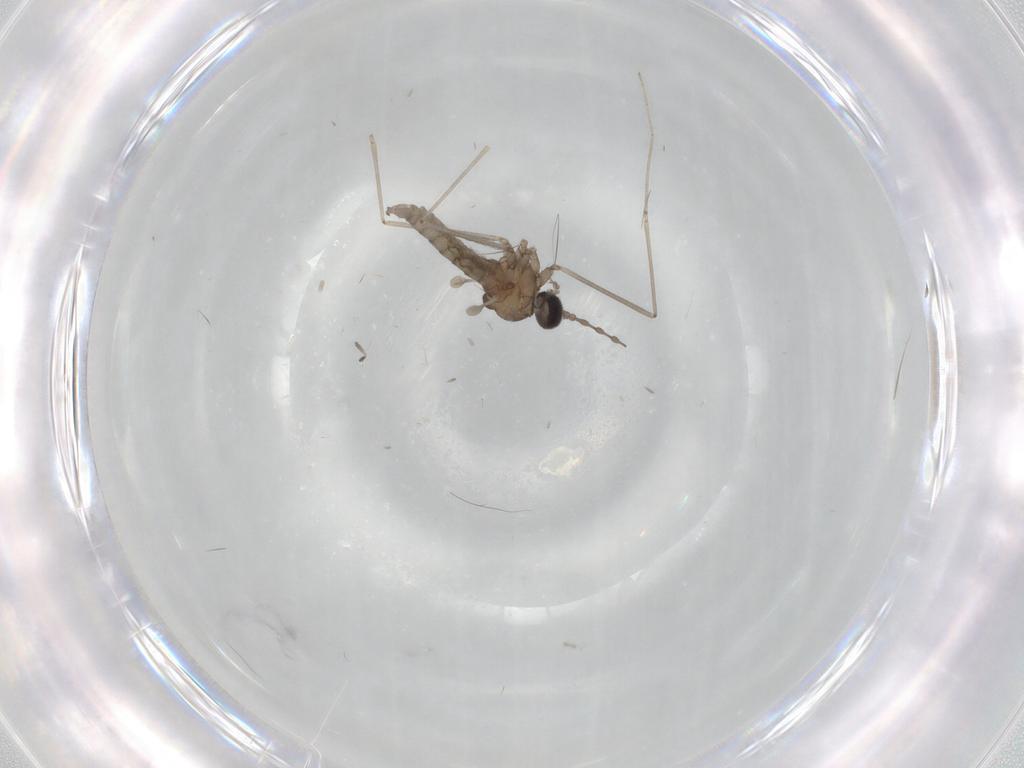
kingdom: Animalia
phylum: Arthropoda
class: Insecta
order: Diptera
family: Cecidomyiidae
